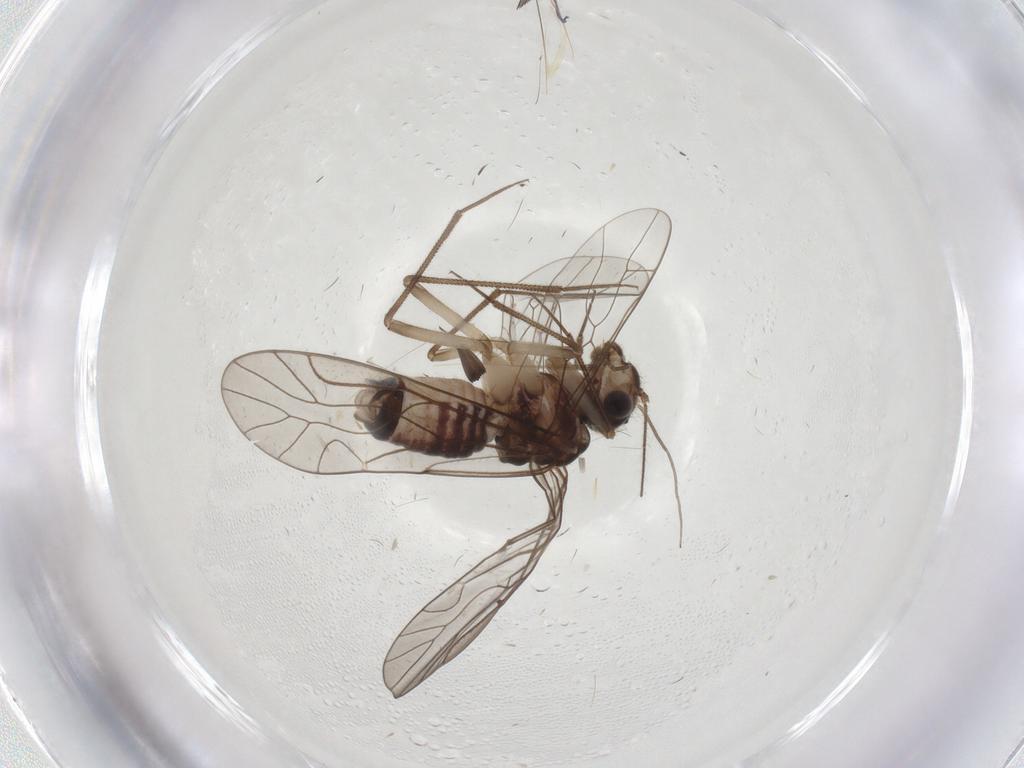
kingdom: Animalia
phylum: Arthropoda
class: Insecta
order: Psocodea
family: Lachesillidae
